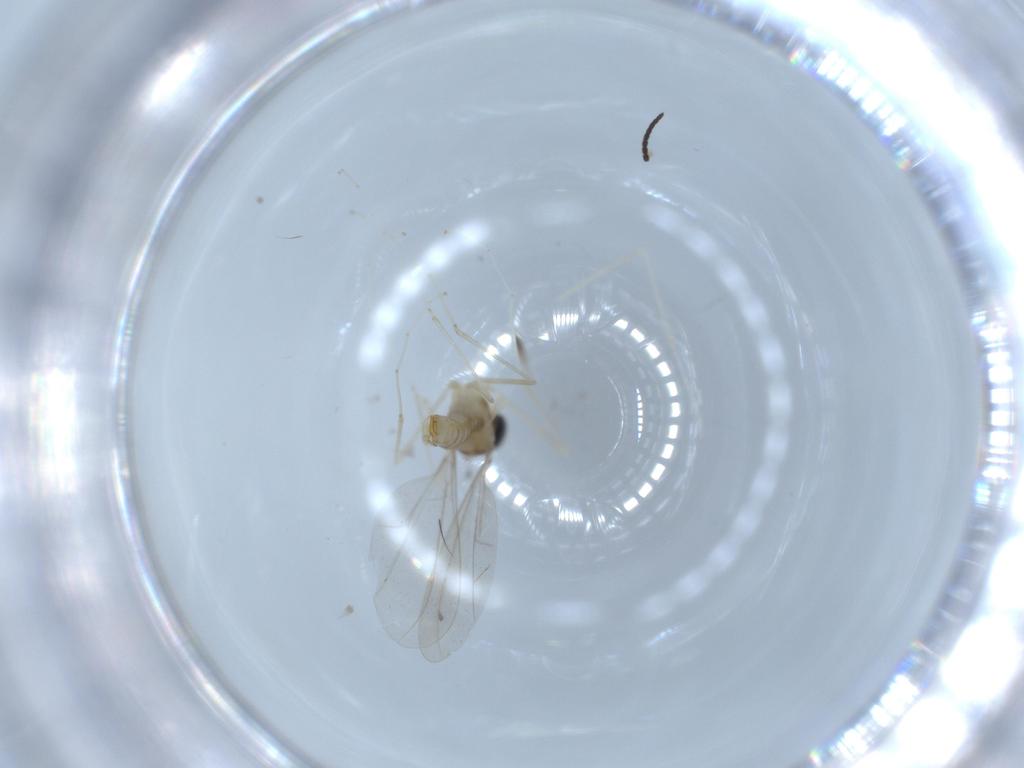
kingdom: Animalia
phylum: Arthropoda
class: Insecta
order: Diptera
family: Cecidomyiidae
